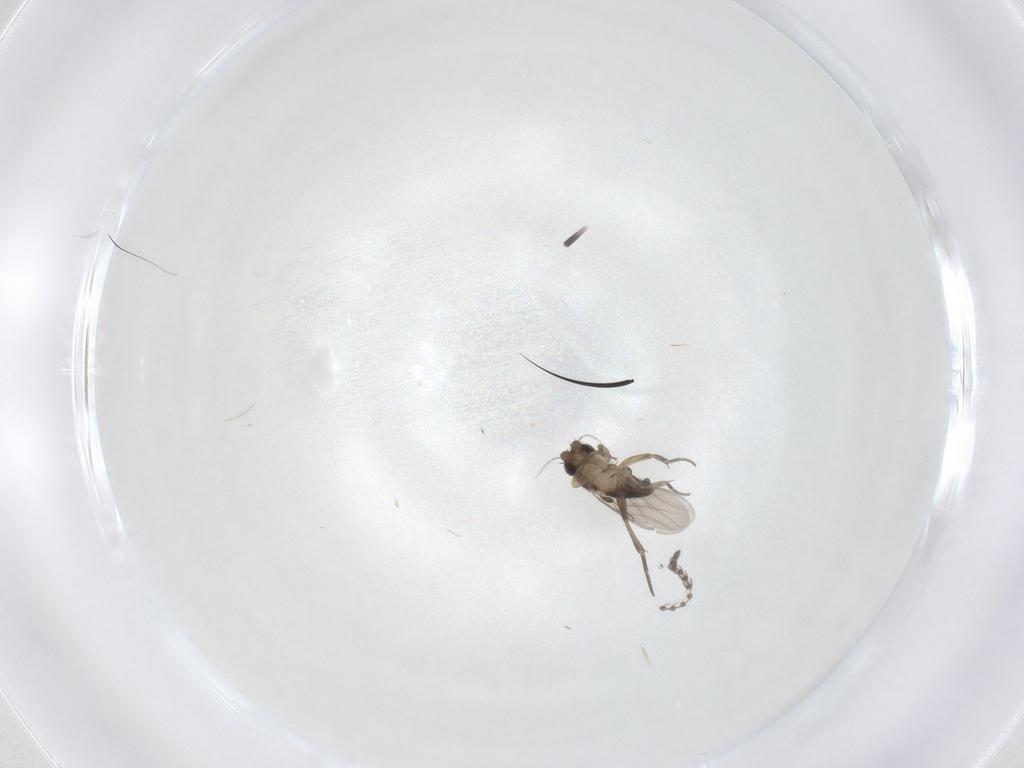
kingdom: Animalia
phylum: Arthropoda
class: Insecta
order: Diptera
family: Phoridae
